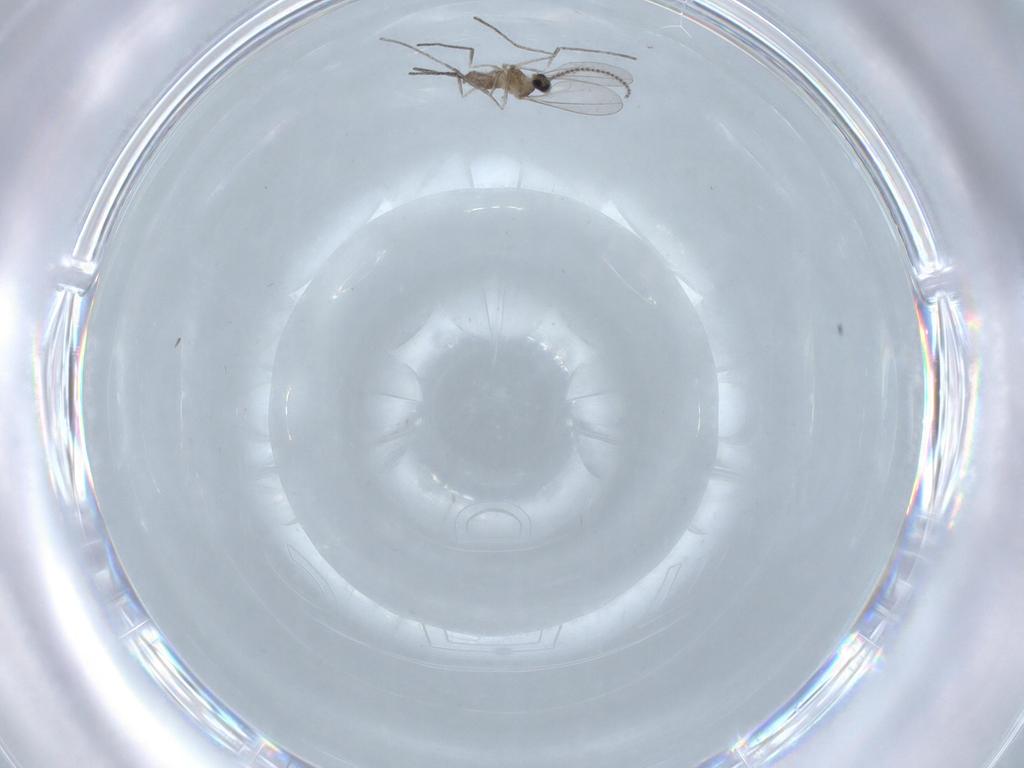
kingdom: Animalia
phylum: Arthropoda
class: Insecta
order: Diptera
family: Cecidomyiidae
